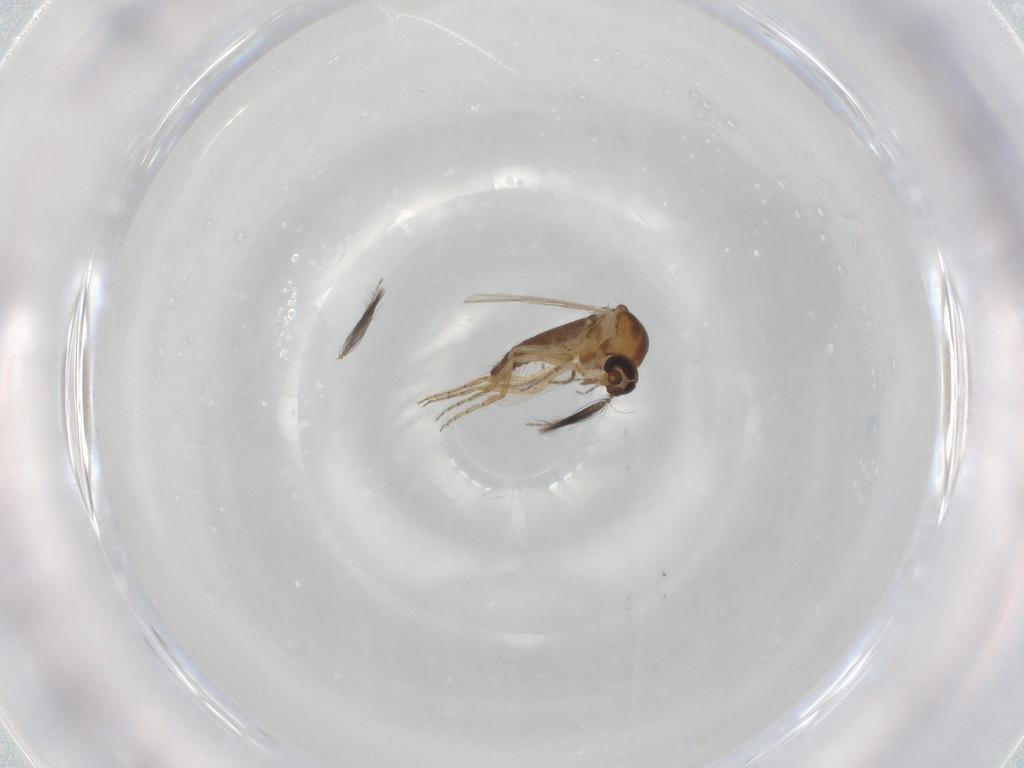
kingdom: Animalia
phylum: Arthropoda
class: Insecta
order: Diptera
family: Ceratopogonidae
